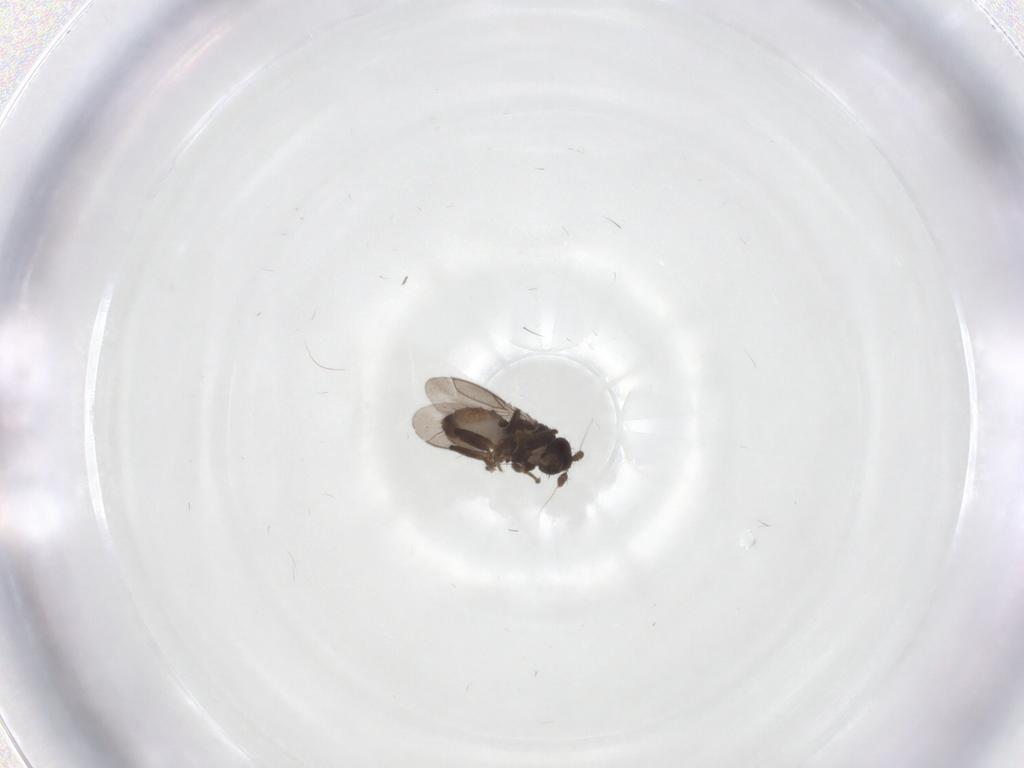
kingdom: Animalia
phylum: Arthropoda
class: Insecta
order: Diptera
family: Sphaeroceridae
